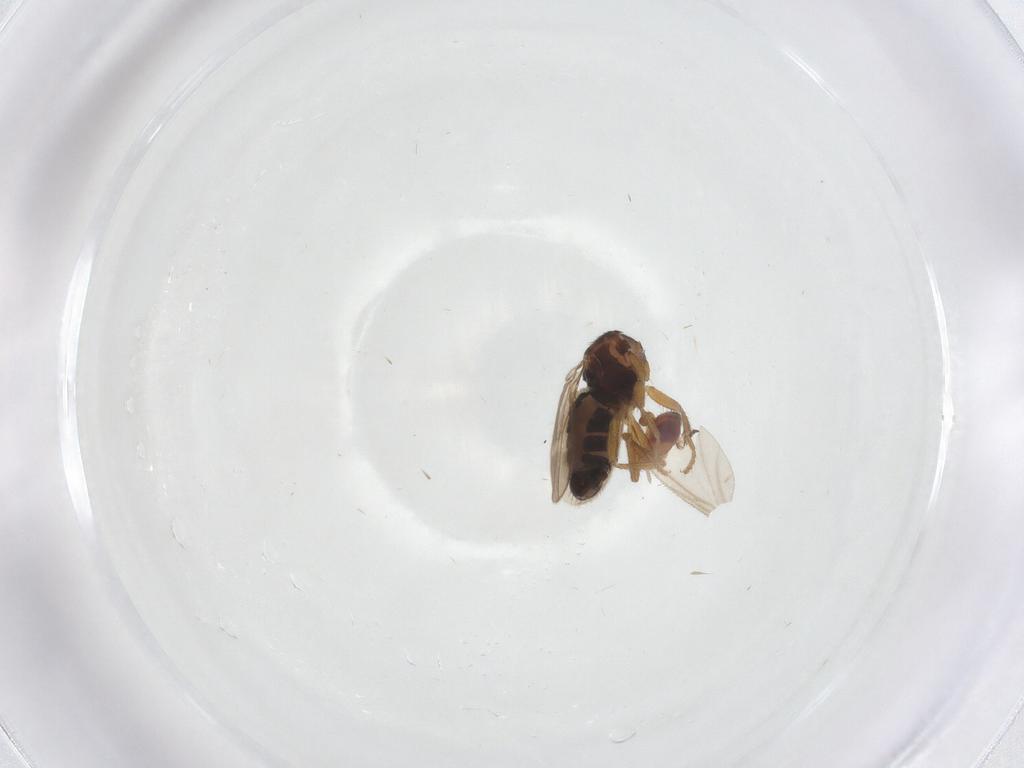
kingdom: Animalia
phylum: Arthropoda
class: Insecta
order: Diptera
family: Sphaeroceridae
